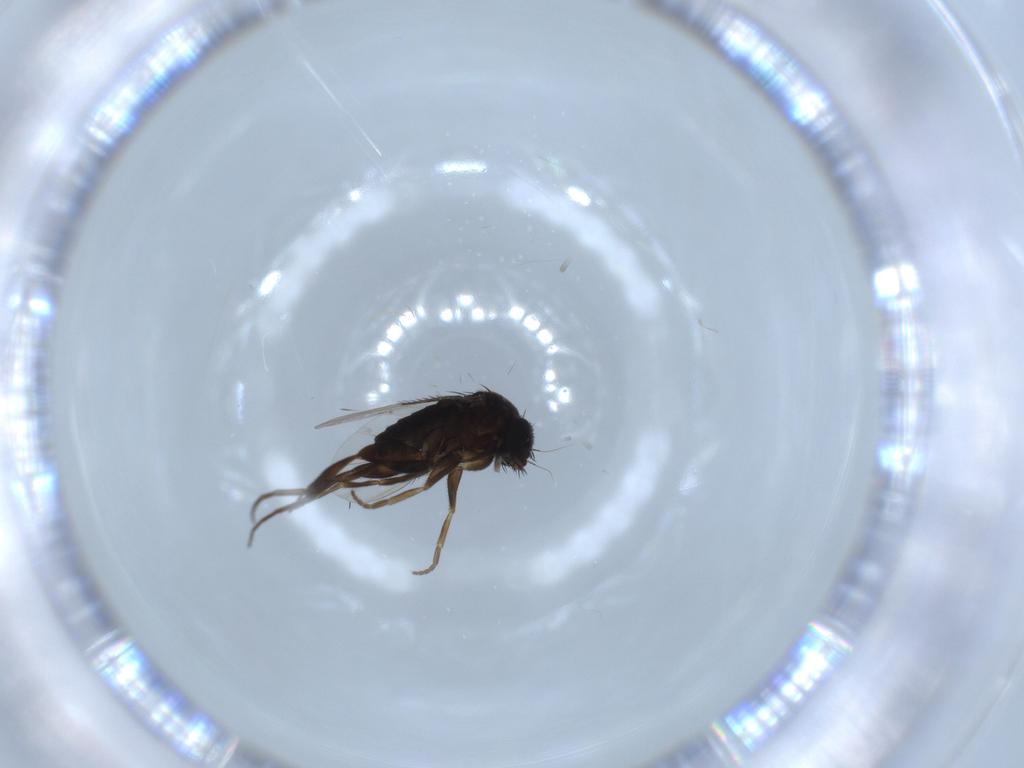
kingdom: Animalia
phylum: Arthropoda
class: Insecta
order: Diptera
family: Phoridae
